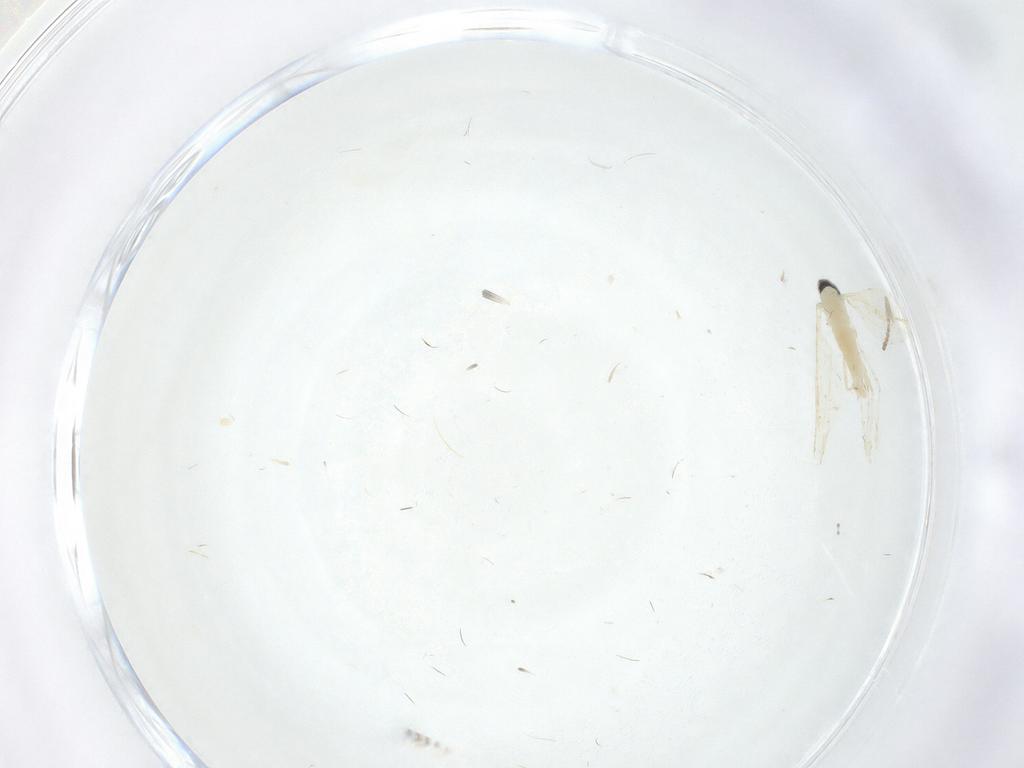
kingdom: Animalia
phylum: Arthropoda
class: Insecta
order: Diptera
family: Cecidomyiidae
